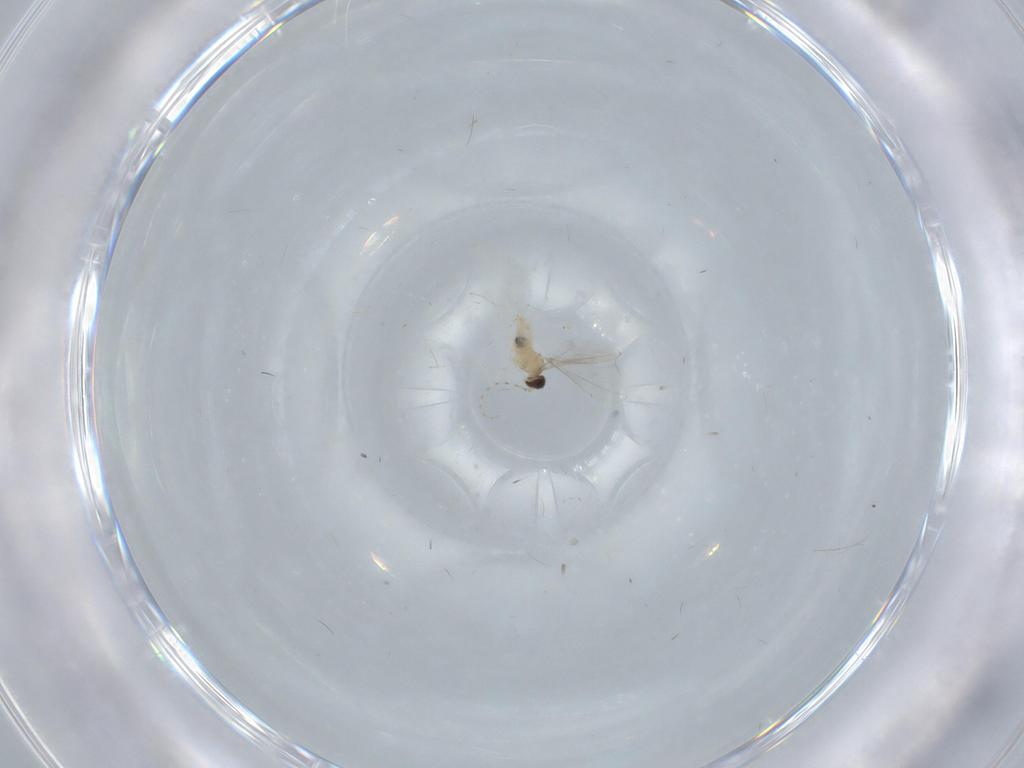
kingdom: Animalia
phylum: Arthropoda
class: Insecta
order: Diptera
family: Cecidomyiidae
